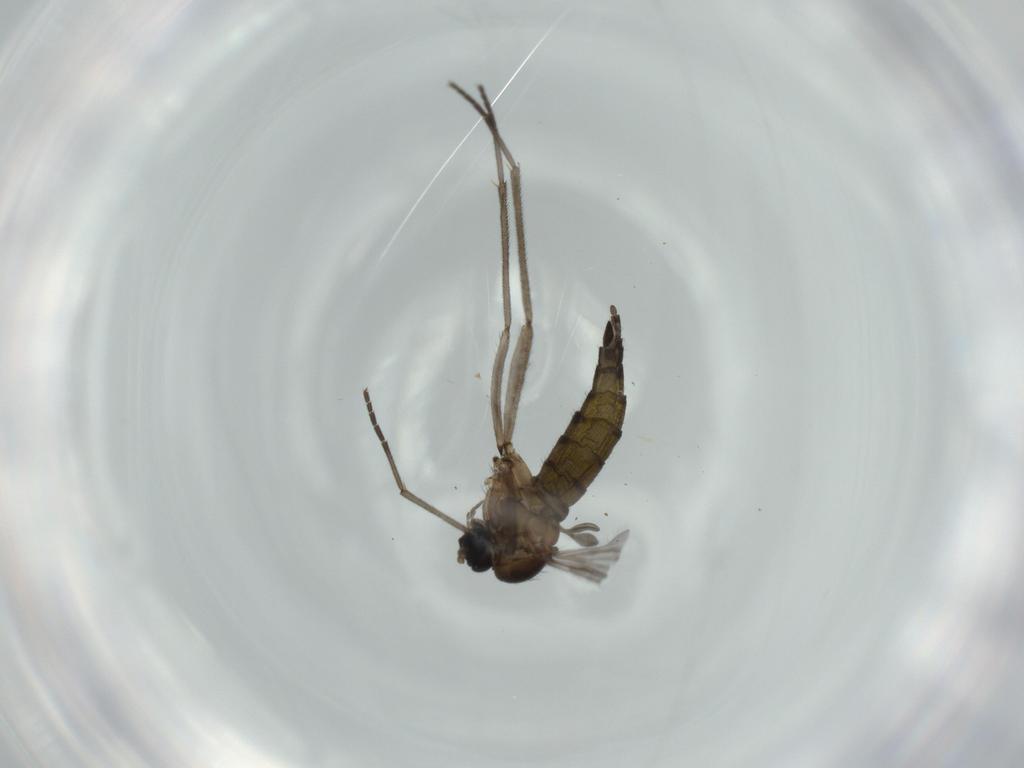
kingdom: Animalia
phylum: Arthropoda
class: Insecta
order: Diptera
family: Sciaridae
